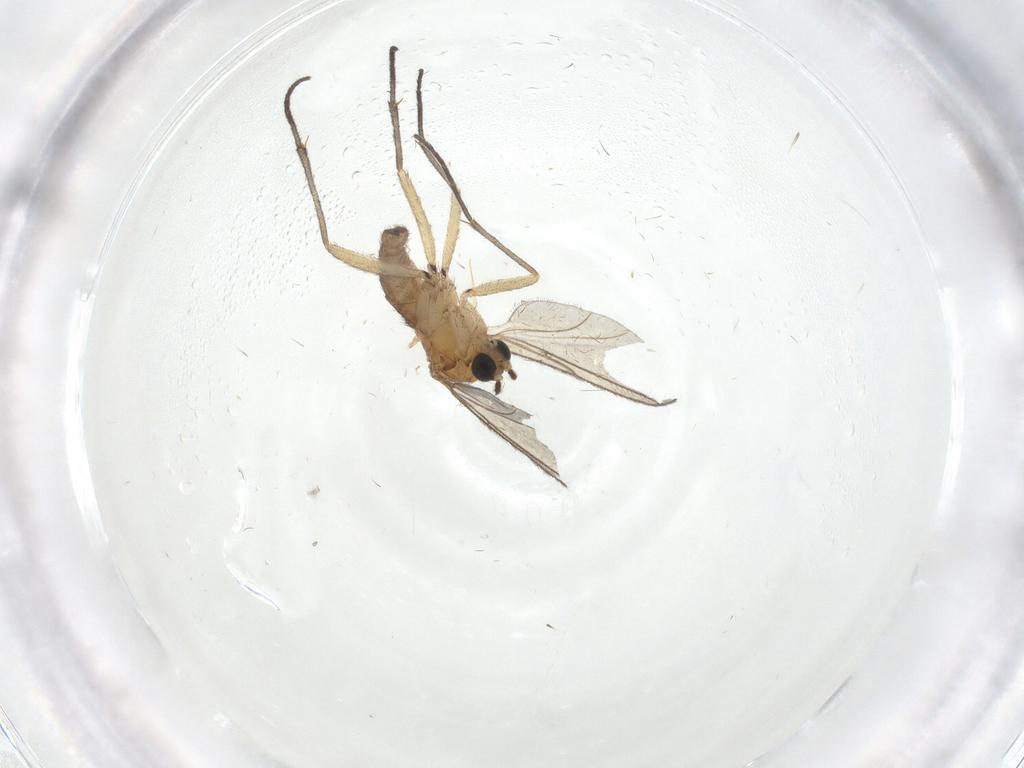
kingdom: Animalia
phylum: Arthropoda
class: Insecta
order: Diptera
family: Sciaridae
